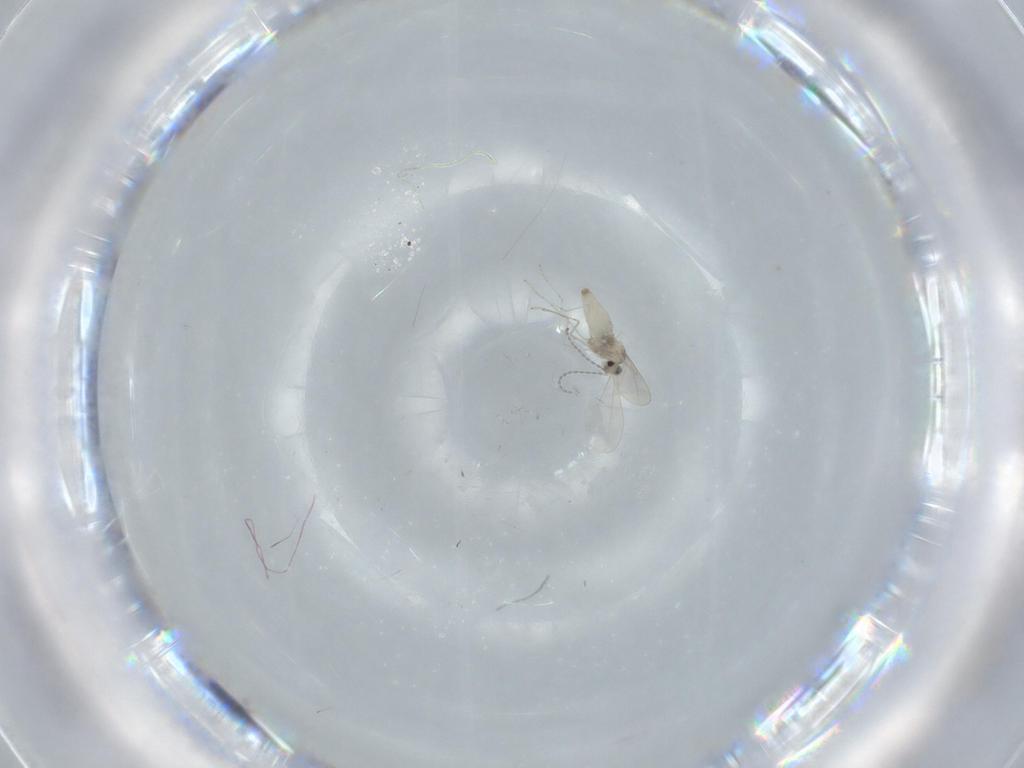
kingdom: Animalia
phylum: Arthropoda
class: Insecta
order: Diptera
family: Cecidomyiidae
